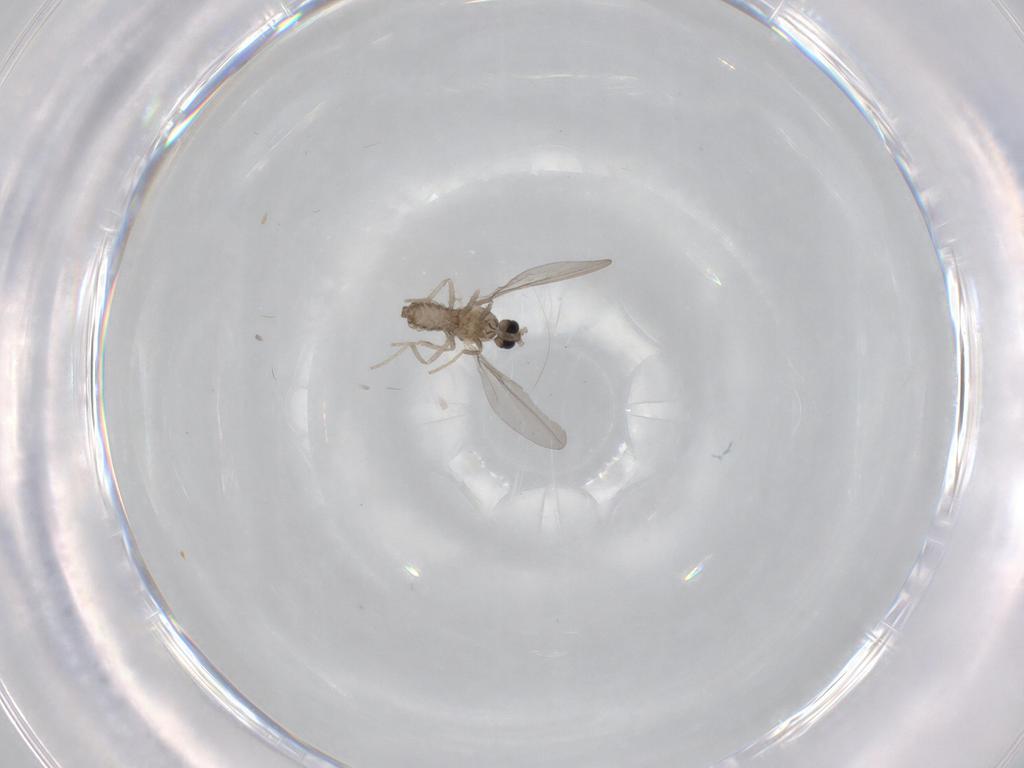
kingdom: Animalia
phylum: Arthropoda
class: Insecta
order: Diptera
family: Cecidomyiidae
